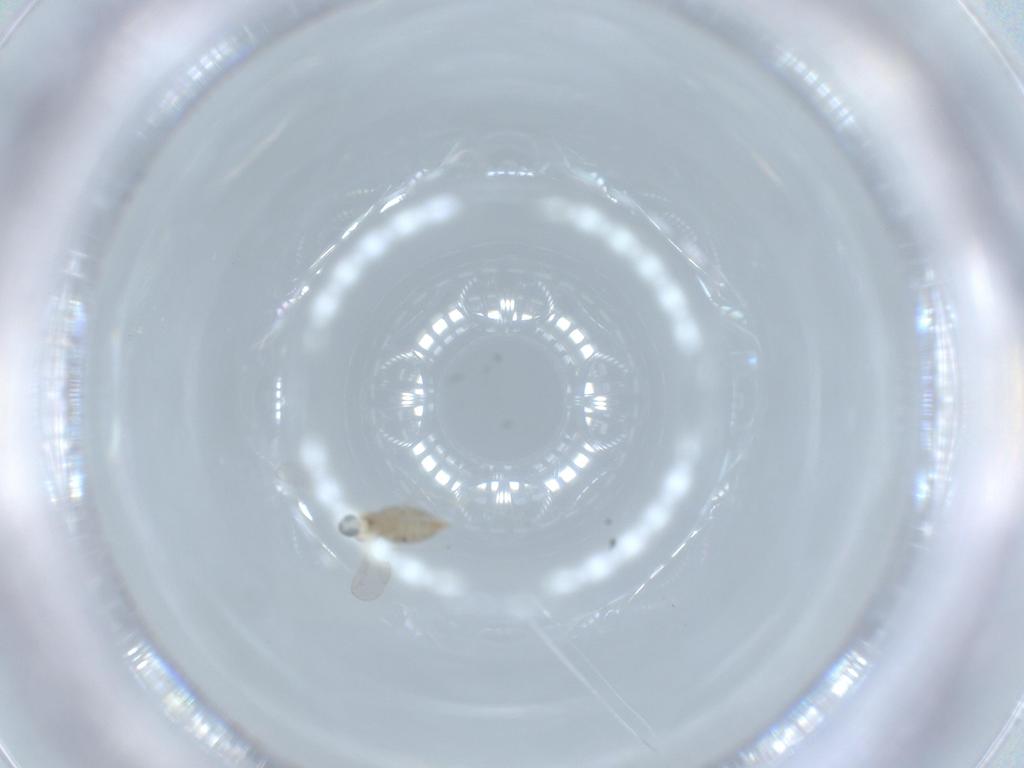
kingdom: Animalia
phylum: Arthropoda
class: Insecta
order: Diptera
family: Cecidomyiidae
